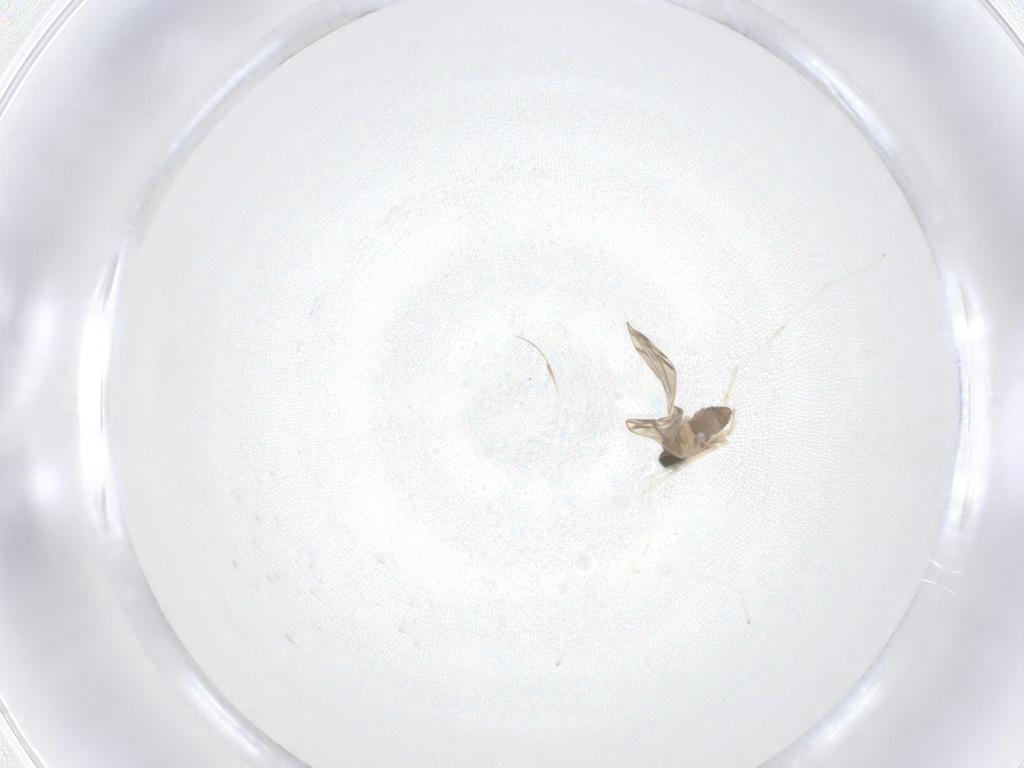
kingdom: Animalia
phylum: Arthropoda
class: Insecta
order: Diptera
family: Cecidomyiidae
